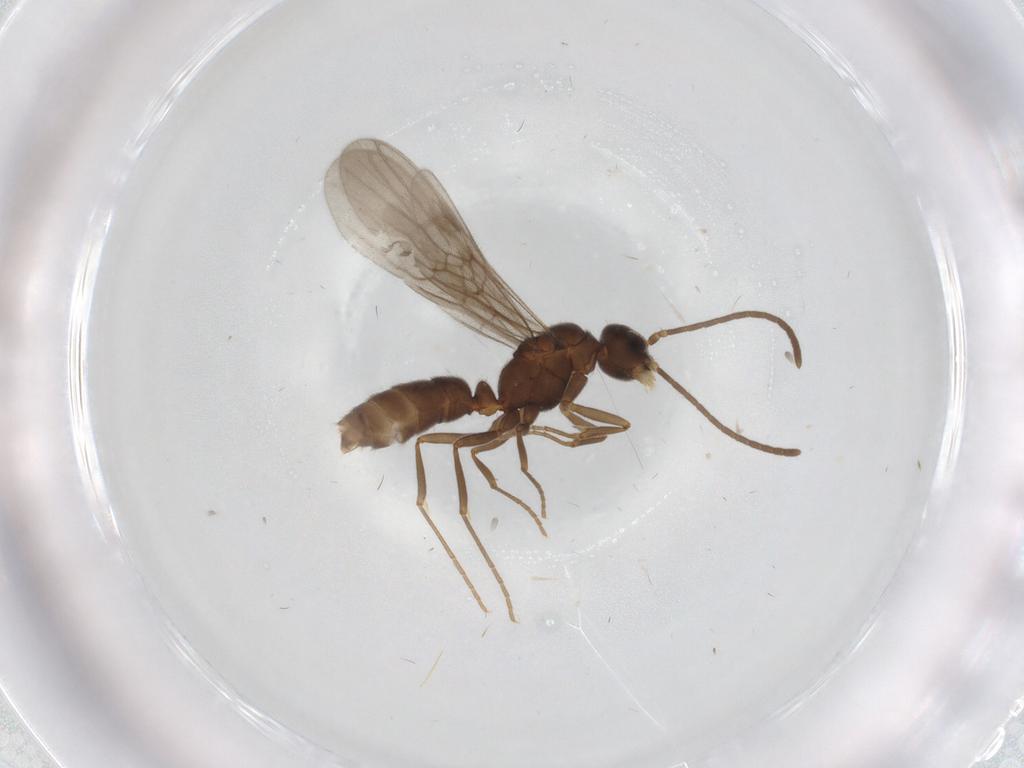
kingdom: Animalia
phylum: Arthropoda
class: Insecta
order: Hymenoptera
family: Formicidae
